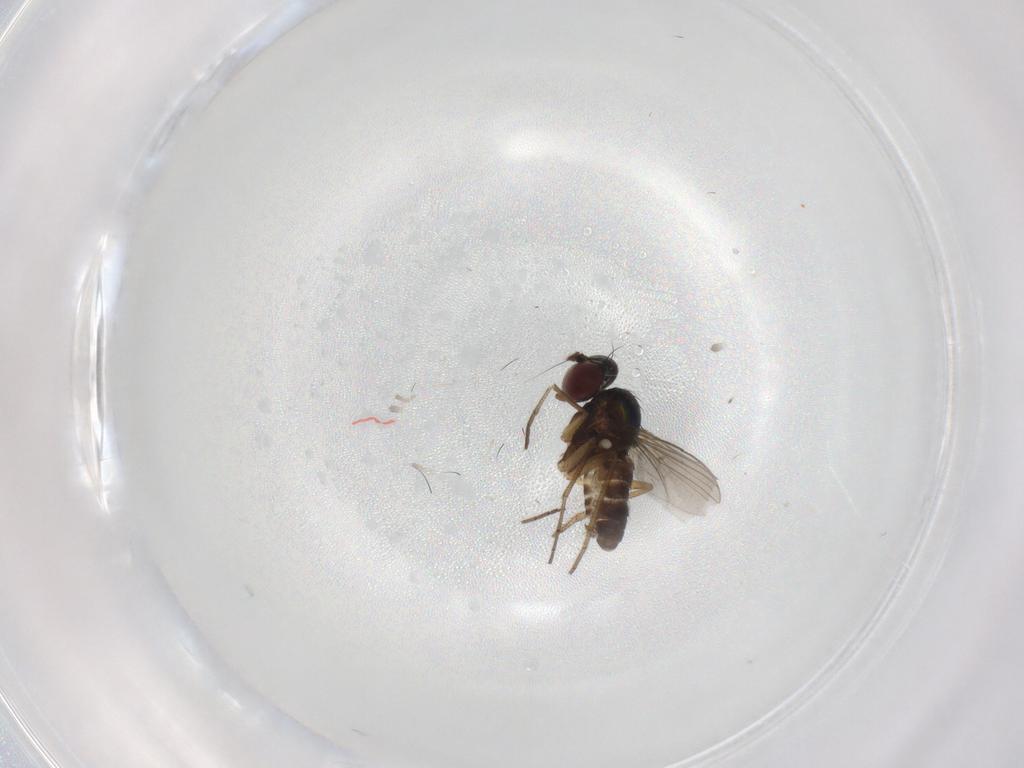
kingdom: Animalia
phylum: Arthropoda
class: Insecta
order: Diptera
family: Dolichopodidae
